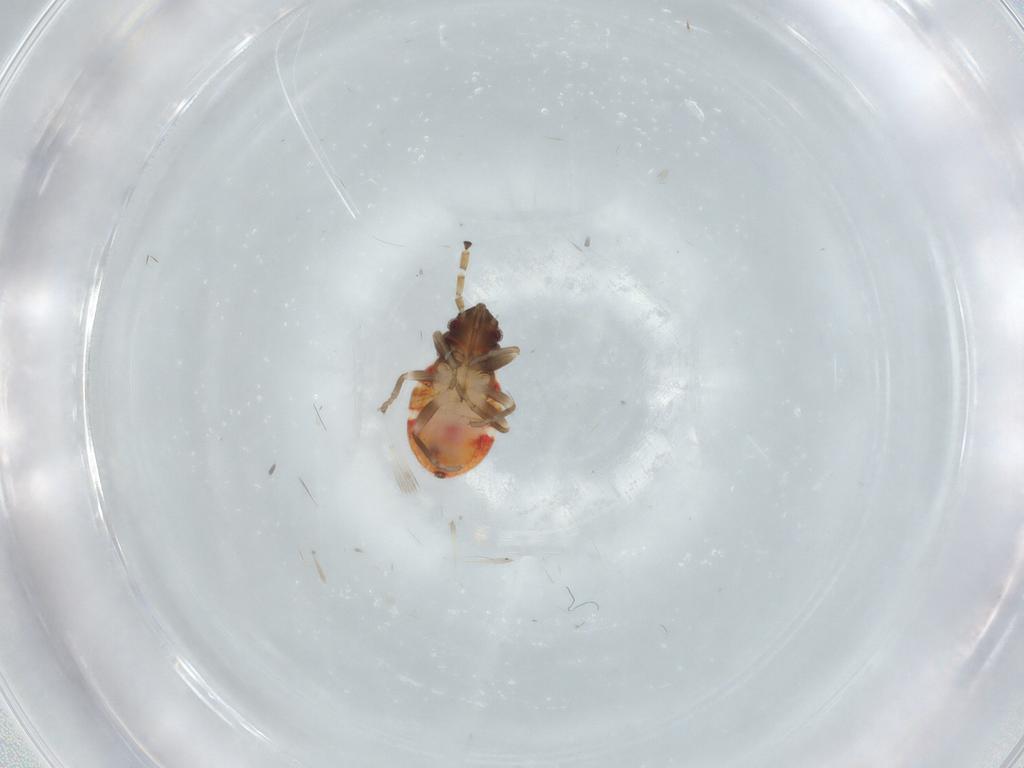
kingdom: Animalia
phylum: Arthropoda
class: Insecta
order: Hemiptera
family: Rhyparochromidae
